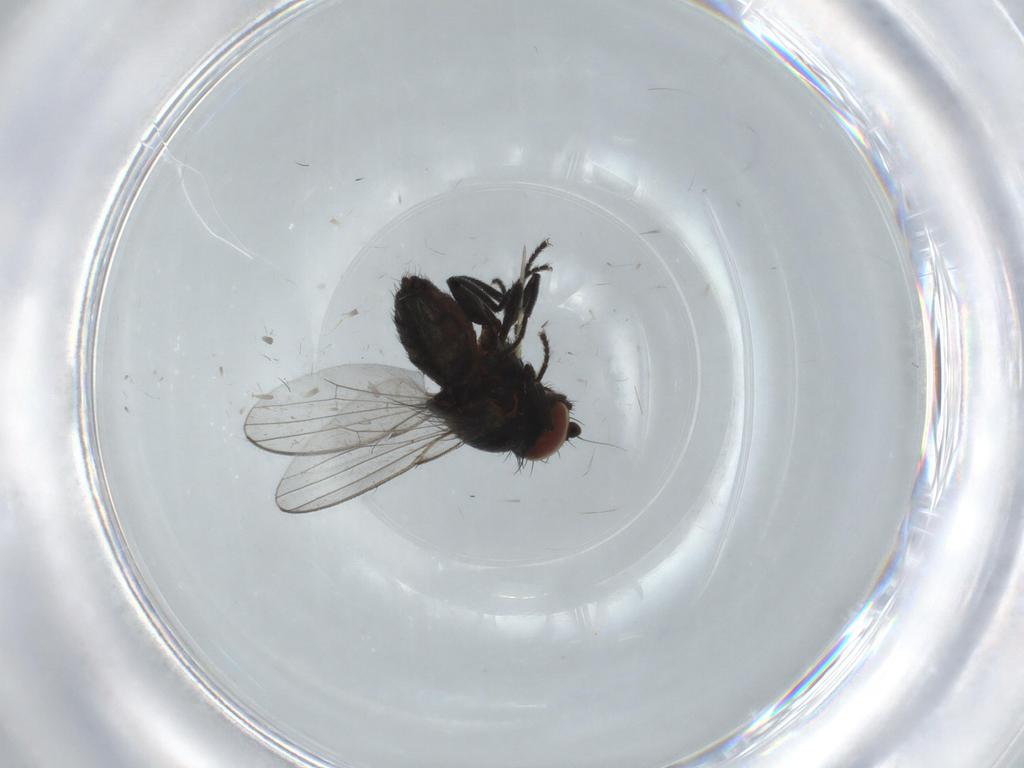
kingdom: Animalia
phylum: Arthropoda
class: Insecta
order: Diptera
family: Milichiidae
